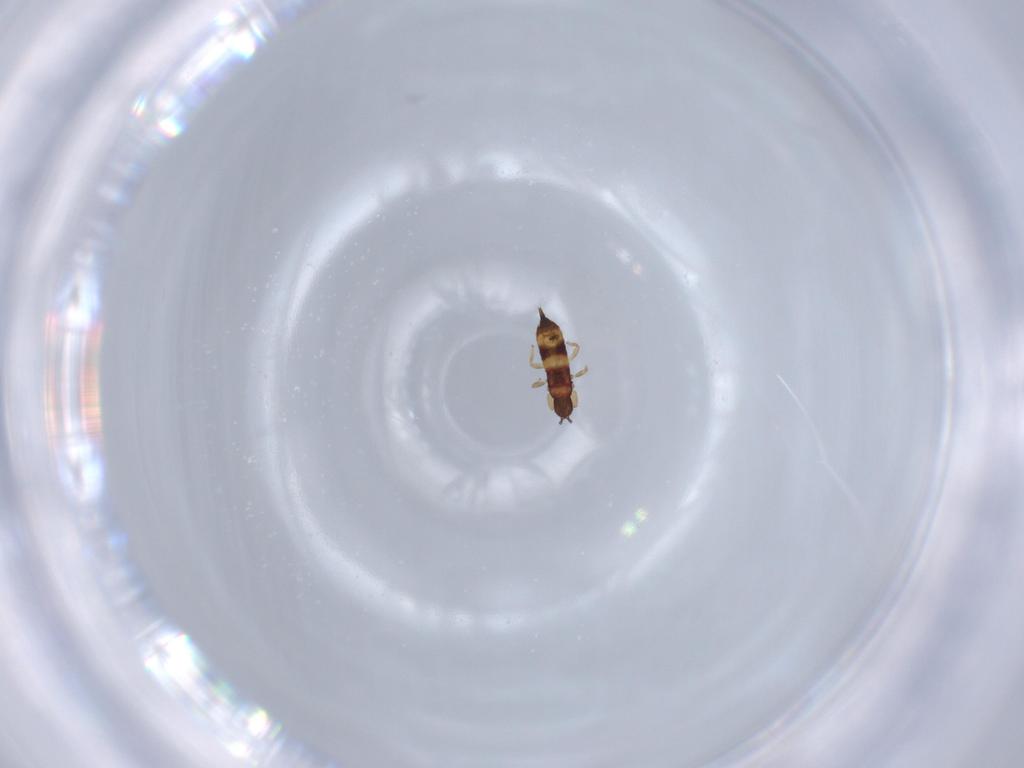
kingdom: Animalia
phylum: Arthropoda
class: Insecta
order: Thysanoptera
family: Phlaeothripidae
